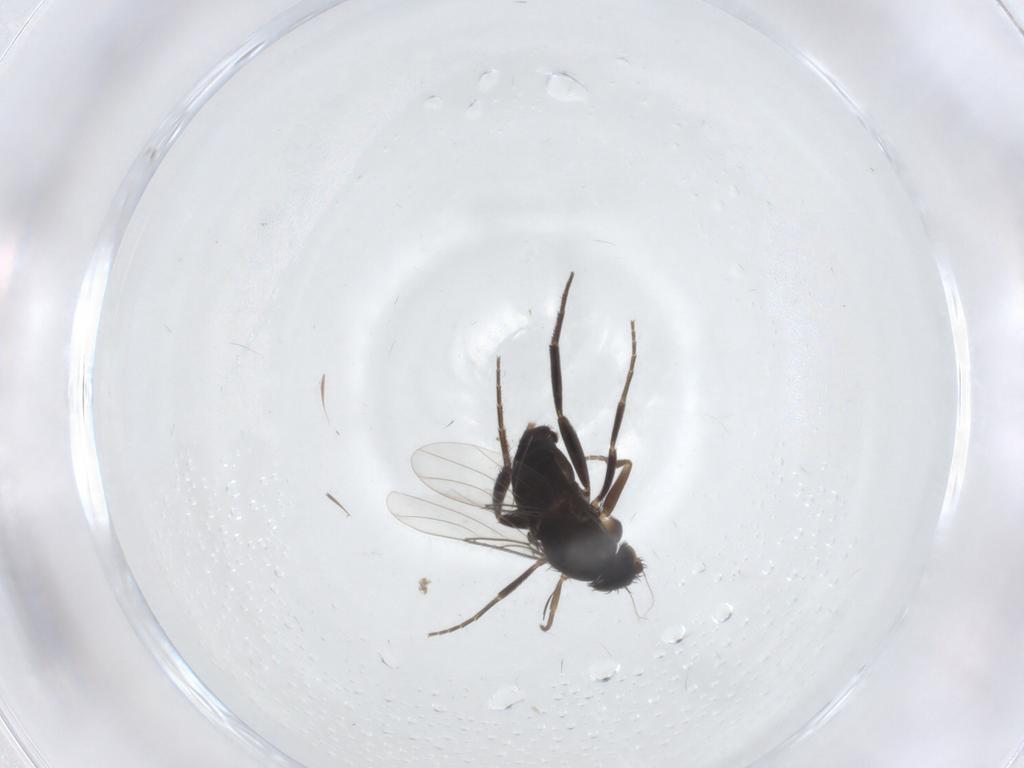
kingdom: Animalia
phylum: Arthropoda
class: Insecta
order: Diptera
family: Phoridae
